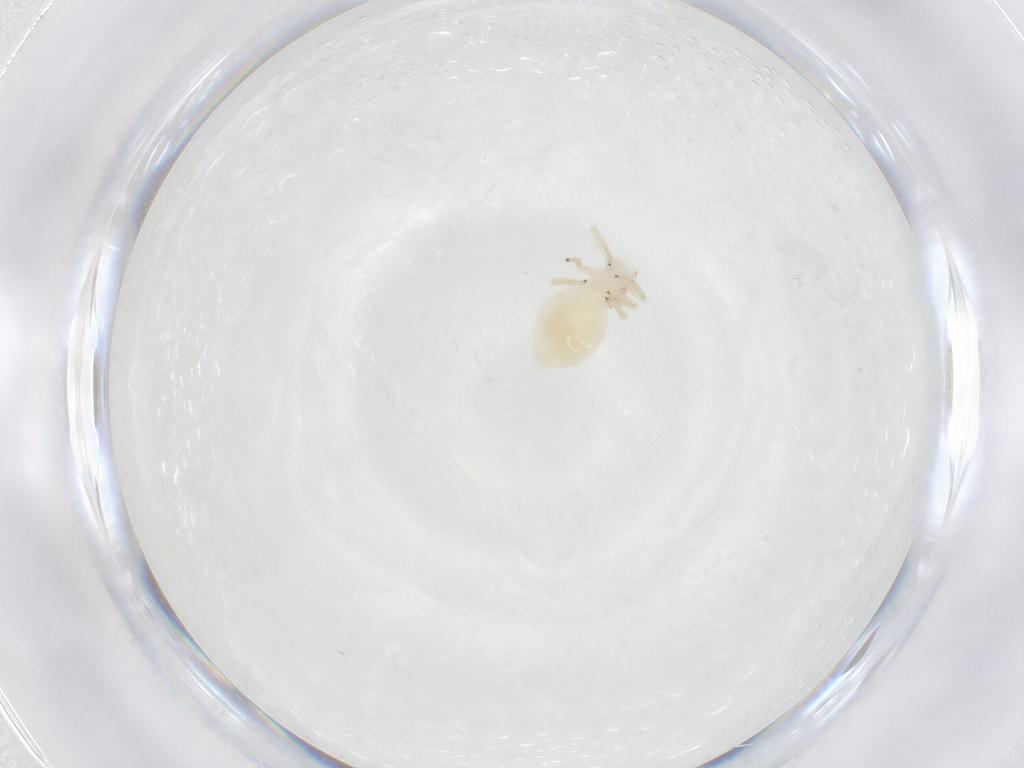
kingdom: Animalia
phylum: Arthropoda
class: Insecta
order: Psocodea
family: Amphipsocidae
